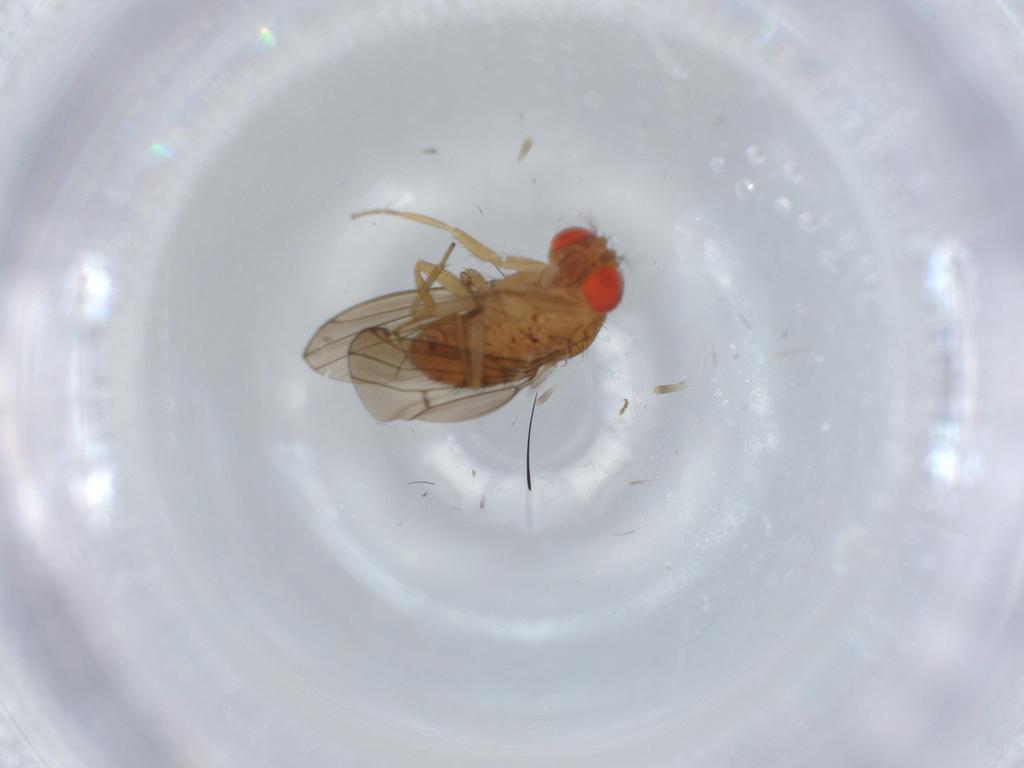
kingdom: Animalia
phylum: Arthropoda
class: Insecta
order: Diptera
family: Drosophilidae
